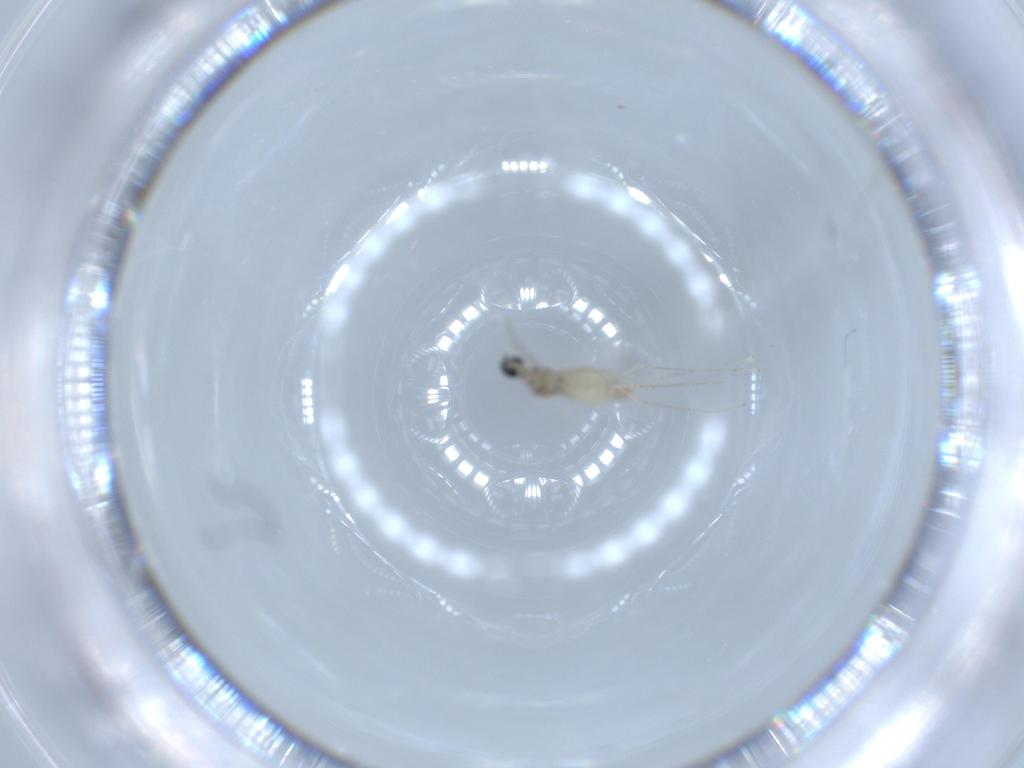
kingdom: Animalia
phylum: Arthropoda
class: Insecta
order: Diptera
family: Cecidomyiidae
